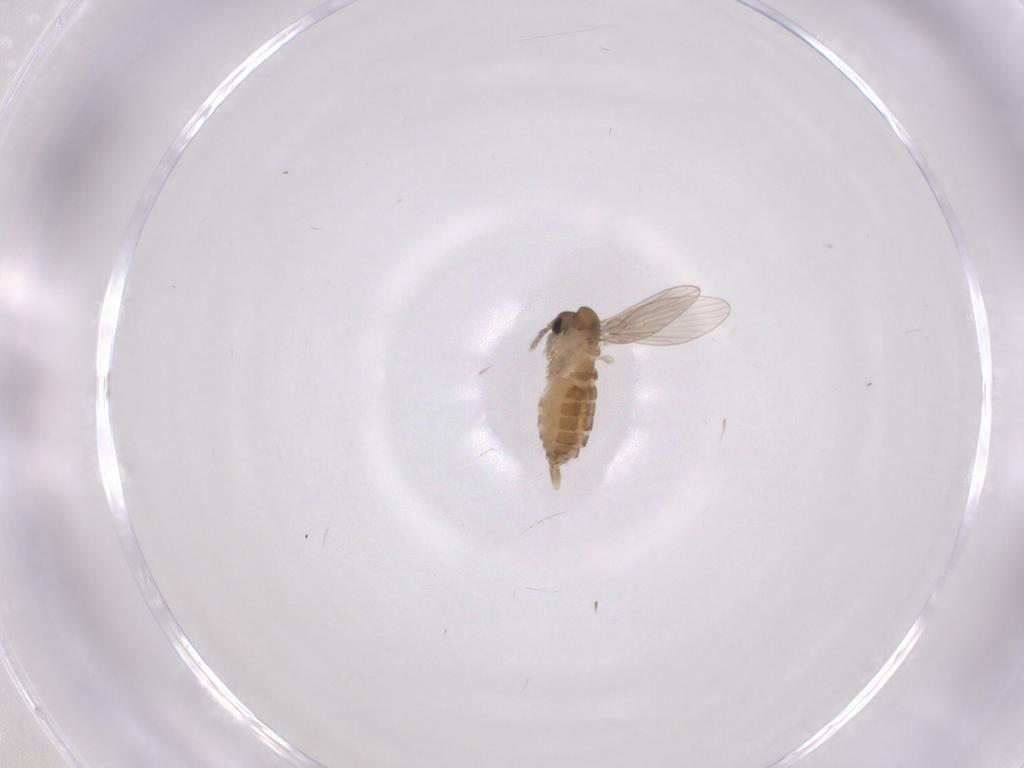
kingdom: Animalia
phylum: Arthropoda
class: Insecta
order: Diptera
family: Psychodidae
